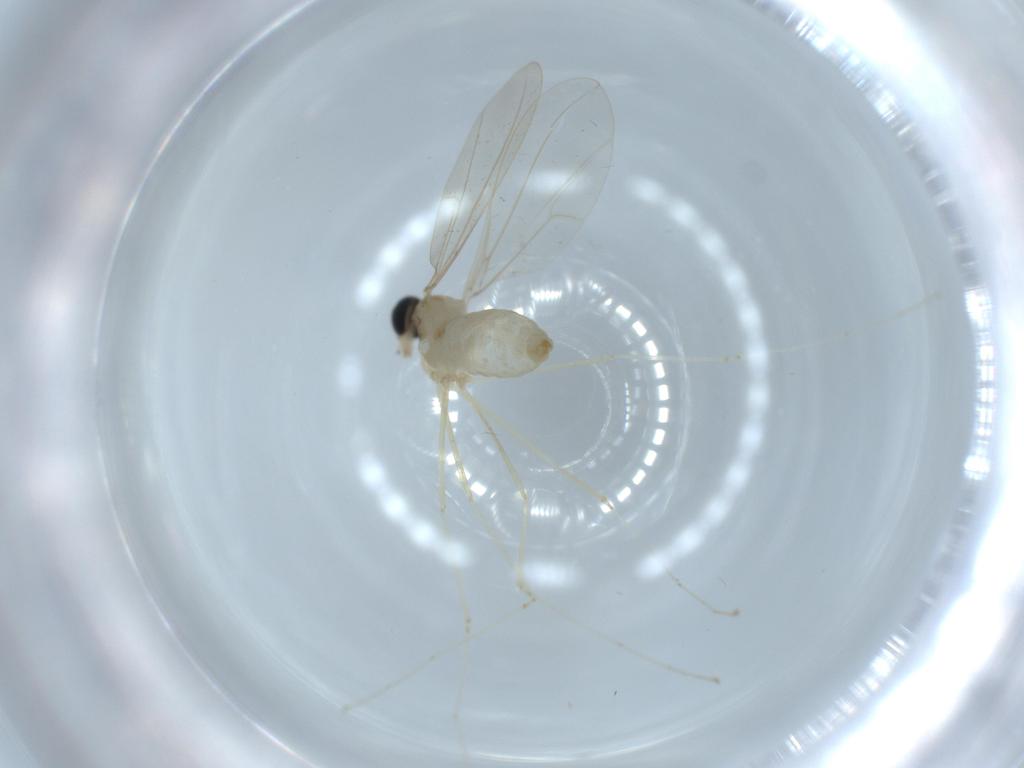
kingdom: Animalia
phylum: Arthropoda
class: Insecta
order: Diptera
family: Cecidomyiidae
